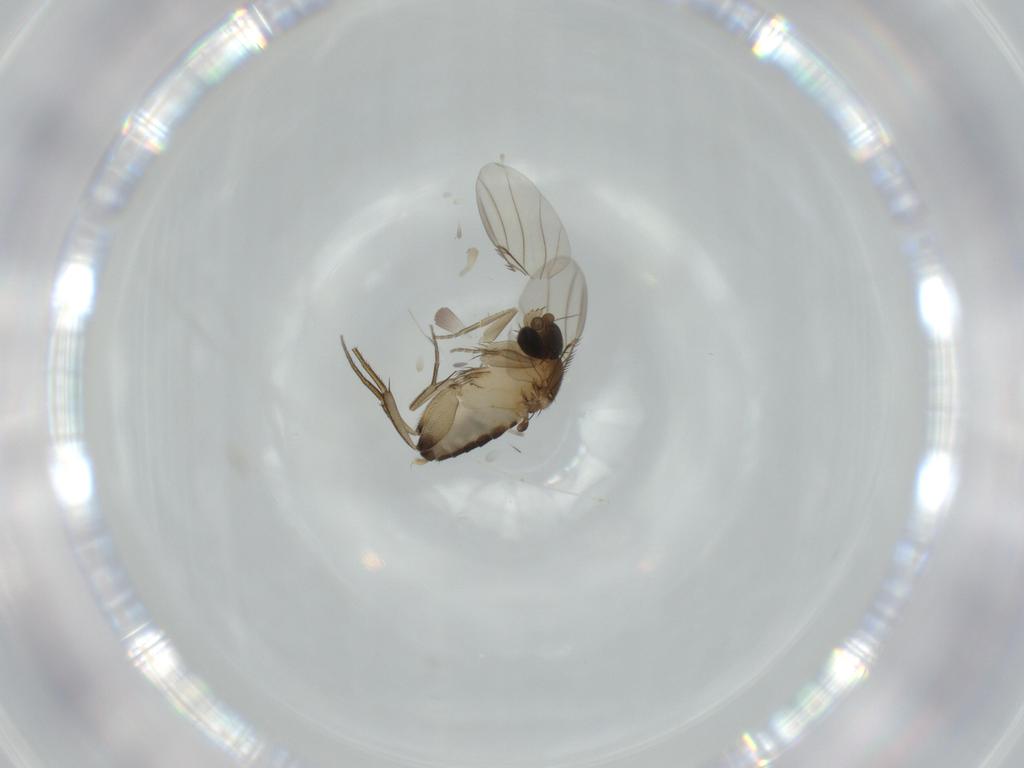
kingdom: Animalia
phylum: Arthropoda
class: Insecta
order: Diptera
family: Phoridae
